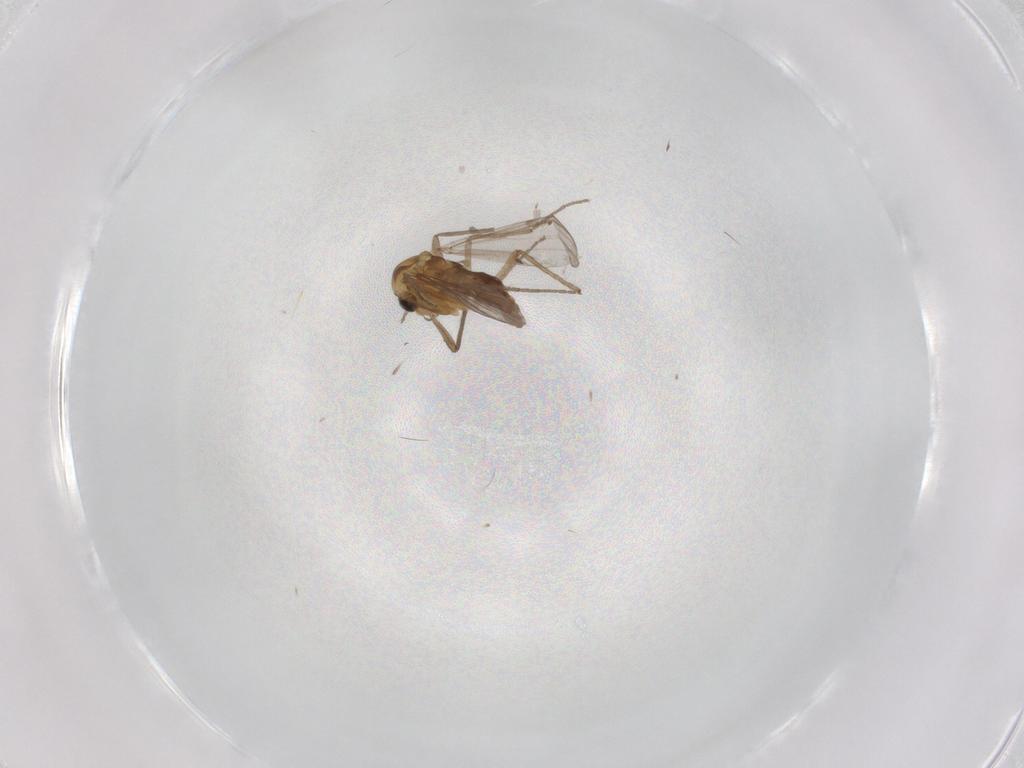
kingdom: Animalia
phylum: Arthropoda
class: Insecta
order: Diptera
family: Chironomidae
